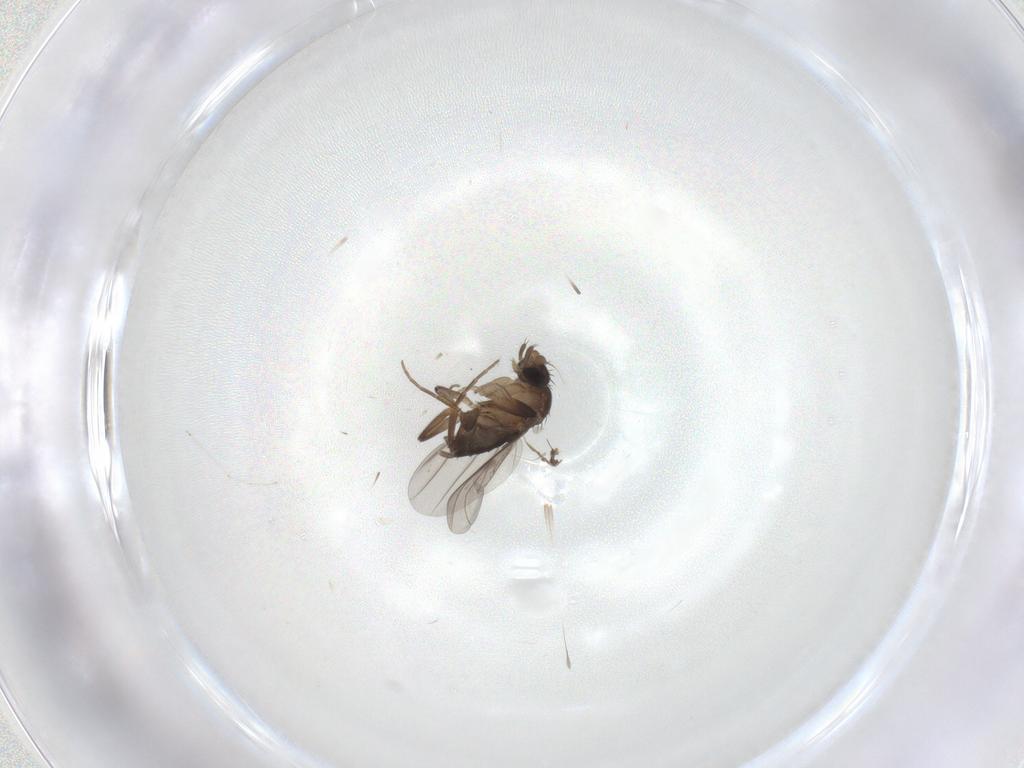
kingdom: Animalia
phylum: Arthropoda
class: Insecta
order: Diptera
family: Phoridae
